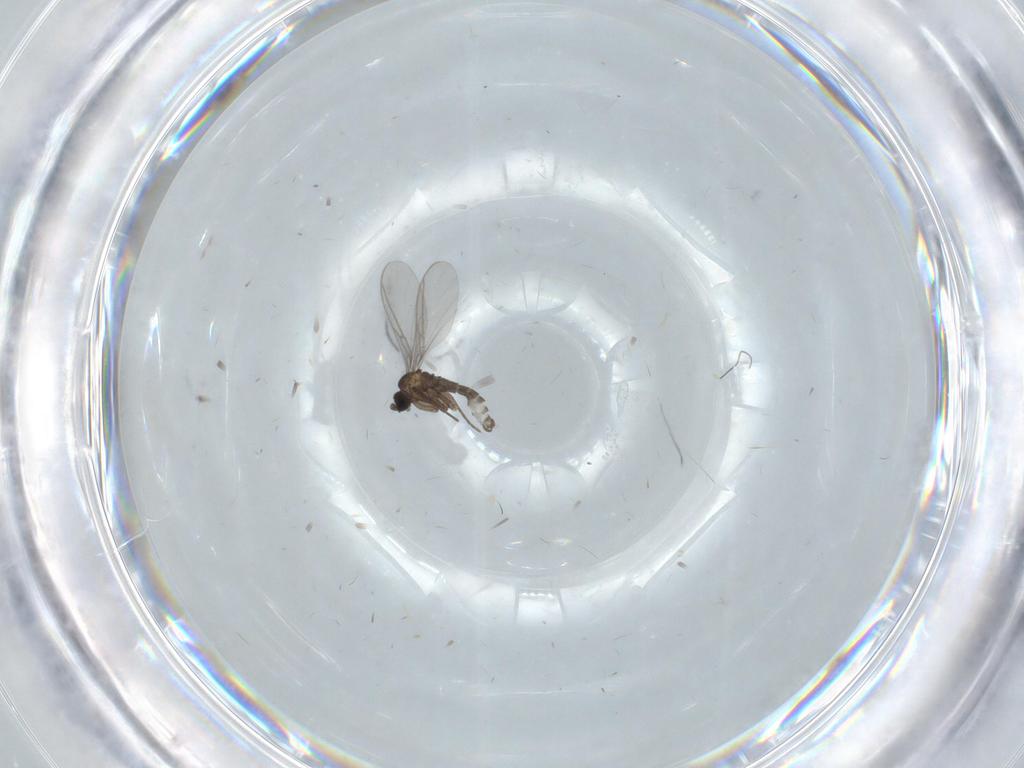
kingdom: Animalia
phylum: Arthropoda
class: Insecta
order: Diptera
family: Sciaridae
